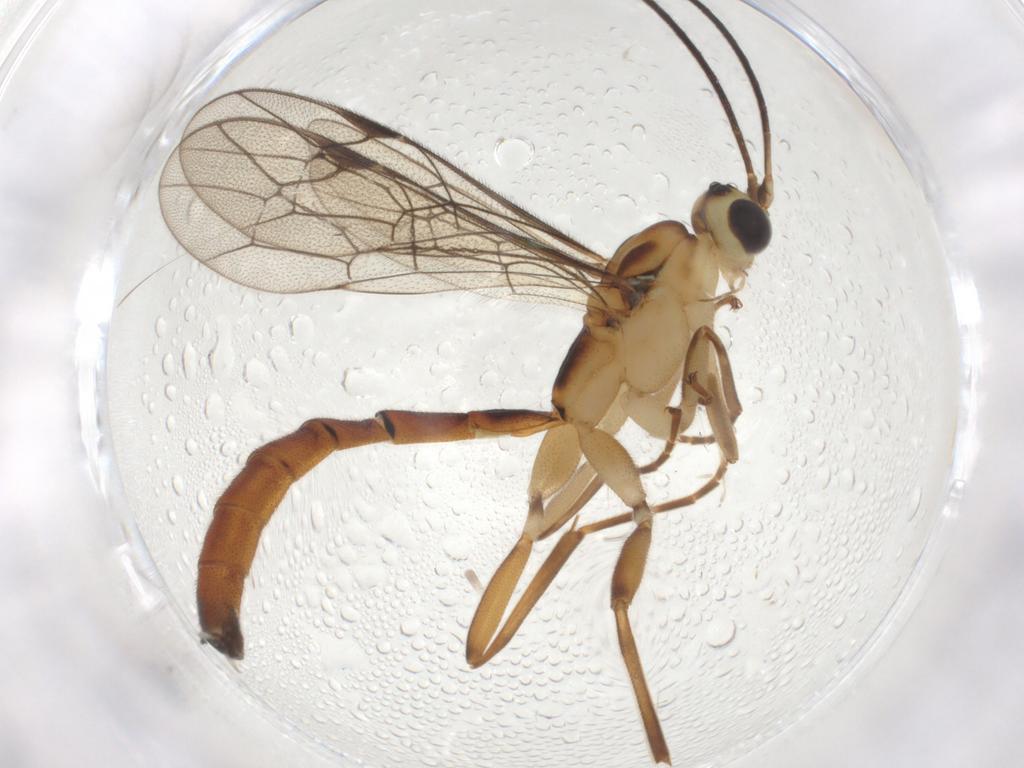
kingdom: Animalia
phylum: Arthropoda
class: Insecta
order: Hymenoptera
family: Ichneumonidae
